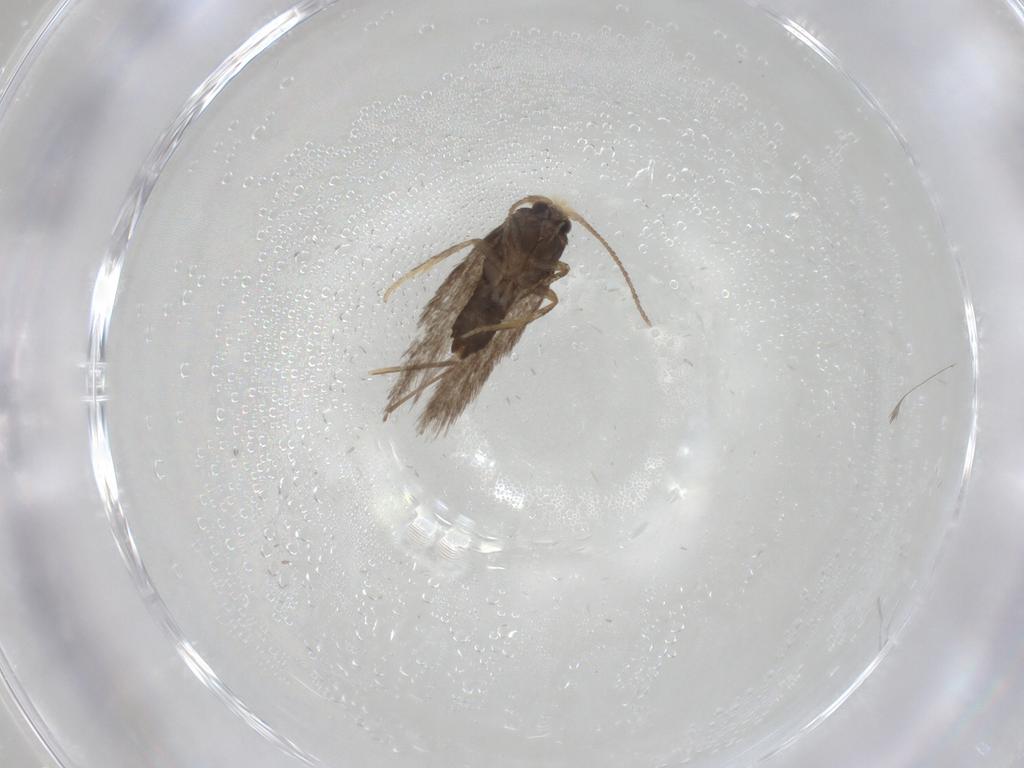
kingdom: Animalia
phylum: Arthropoda
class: Insecta
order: Lepidoptera
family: Nepticulidae
